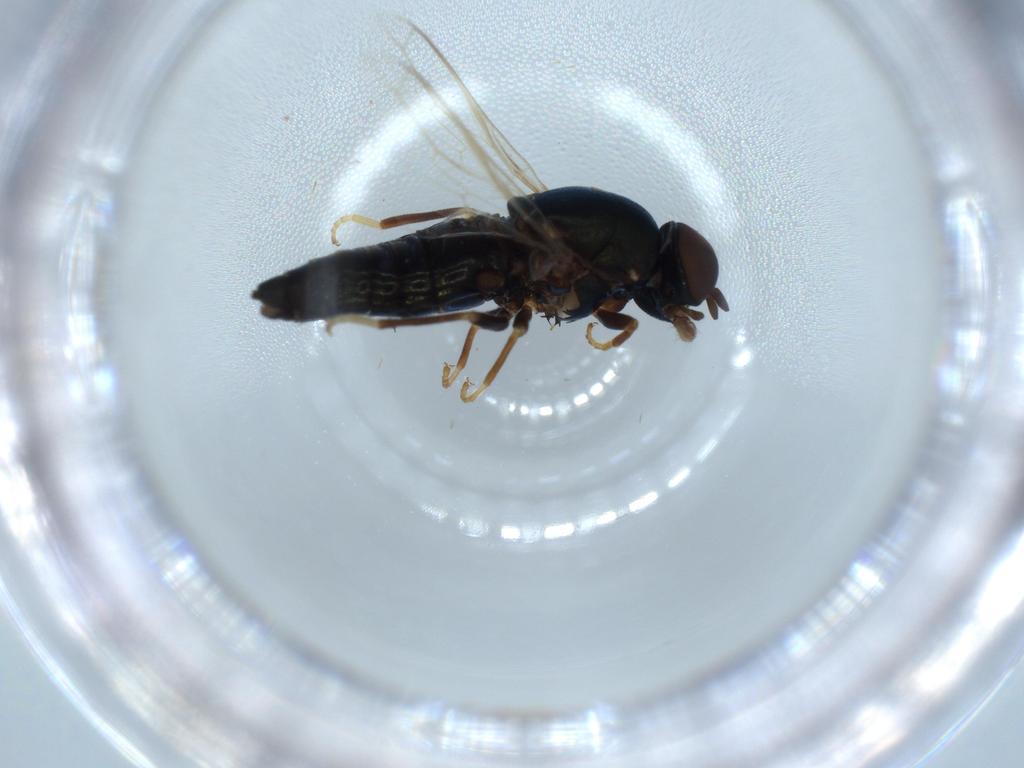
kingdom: Animalia
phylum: Arthropoda
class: Insecta
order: Diptera
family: Scenopinidae
